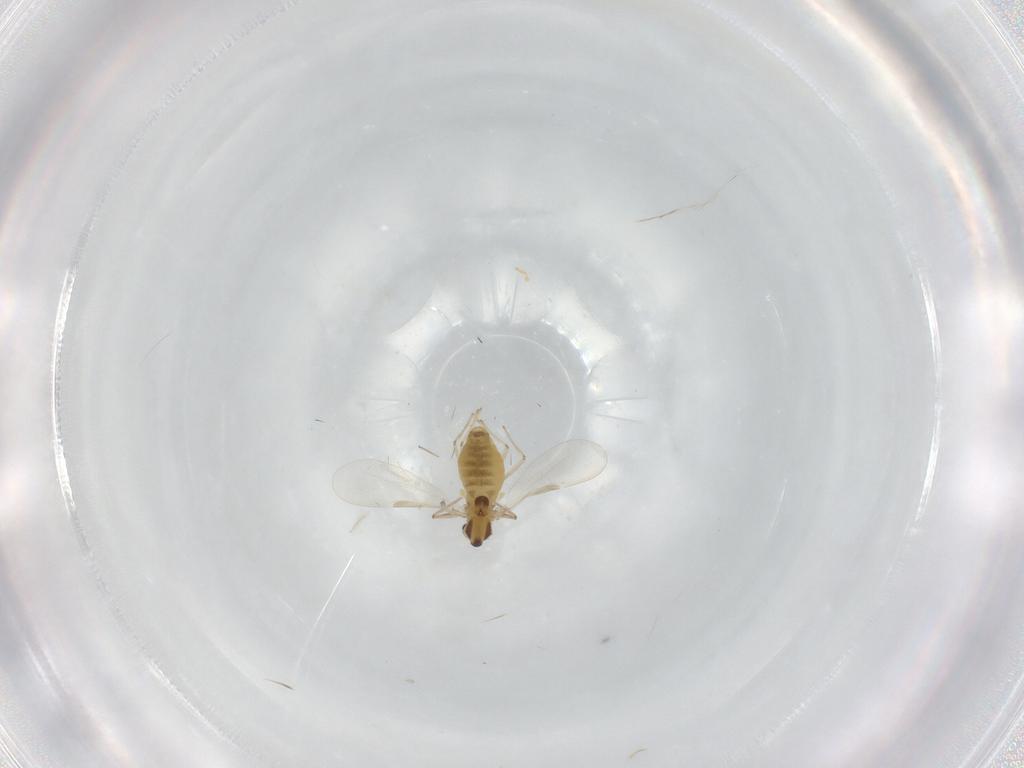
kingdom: Animalia
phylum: Arthropoda
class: Insecta
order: Diptera
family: Chironomidae
